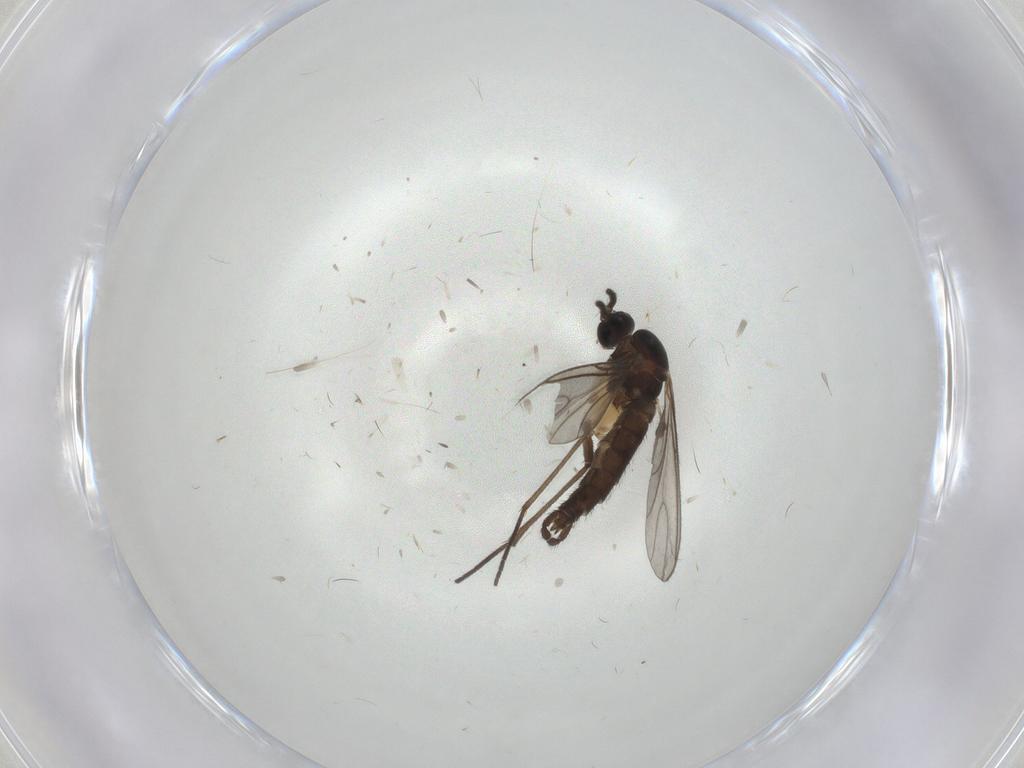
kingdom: Animalia
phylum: Arthropoda
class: Insecta
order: Diptera
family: Sciaridae
